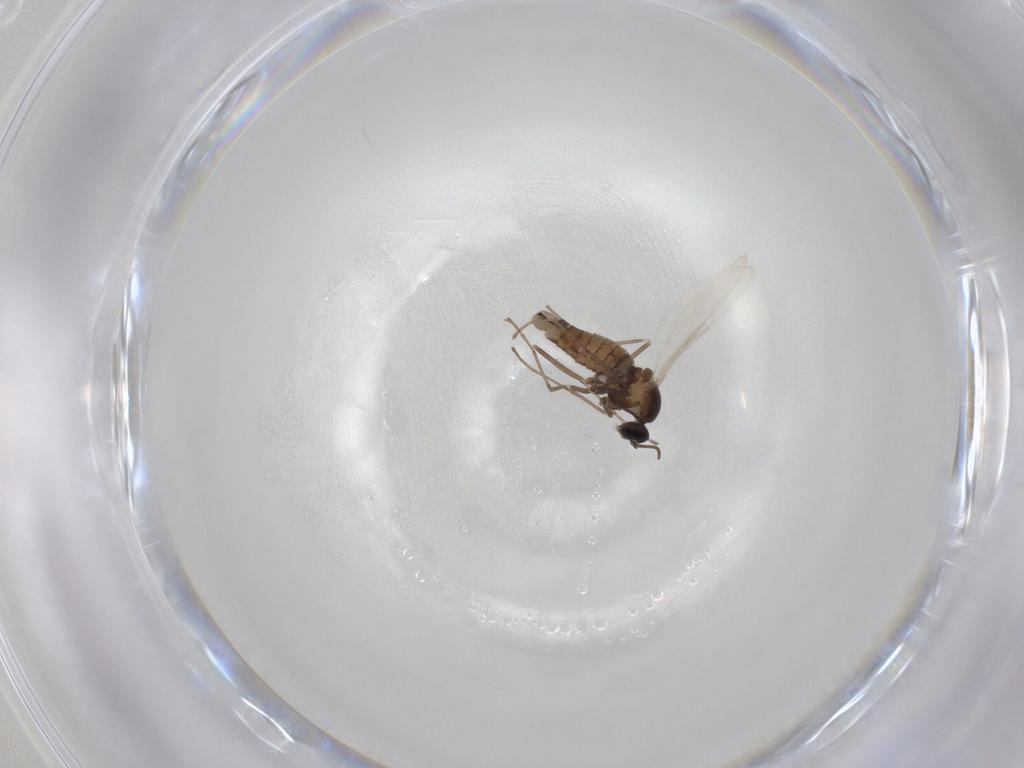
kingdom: Animalia
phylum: Arthropoda
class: Insecta
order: Diptera
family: Cecidomyiidae
